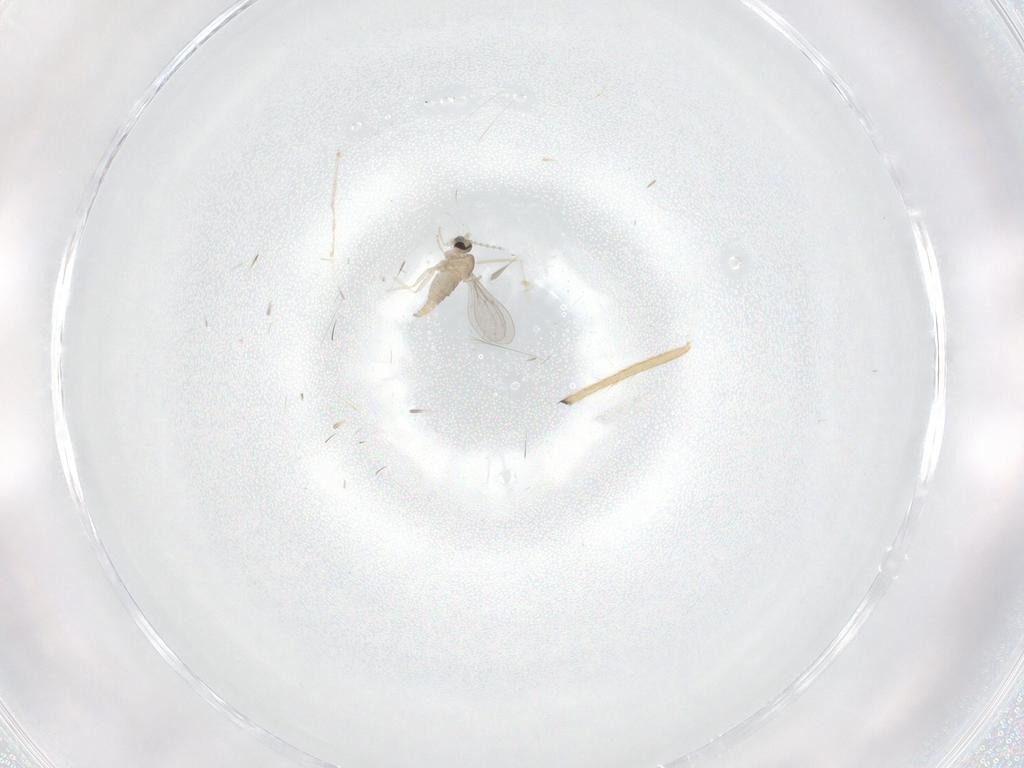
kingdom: Animalia
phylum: Arthropoda
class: Insecta
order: Diptera
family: Cecidomyiidae
